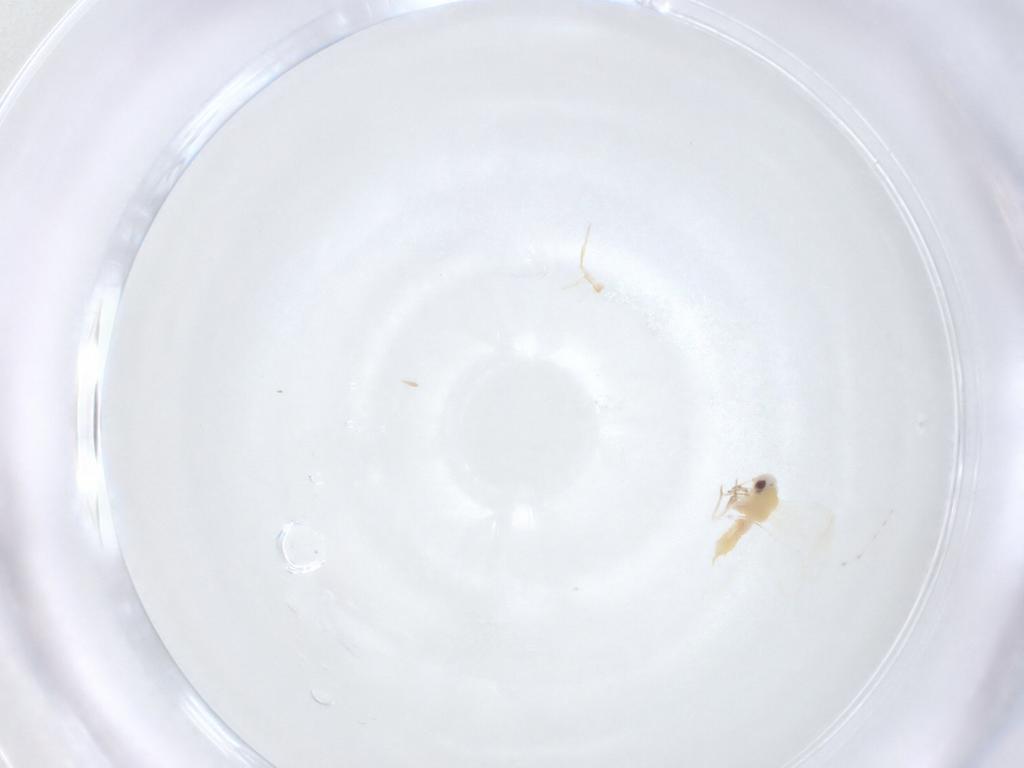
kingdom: Animalia
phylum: Arthropoda
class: Insecta
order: Hemiptera
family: Aleyrodidae
